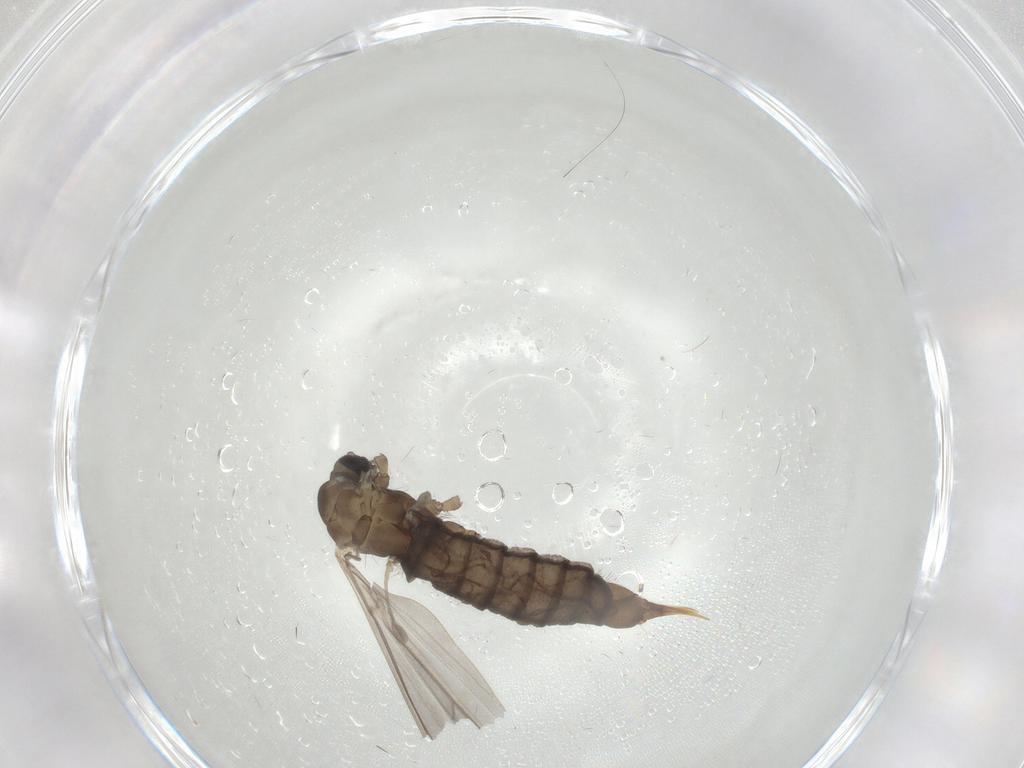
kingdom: Animalia
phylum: Arthropoda
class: Insecta
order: Diptera
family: Limoniidae
